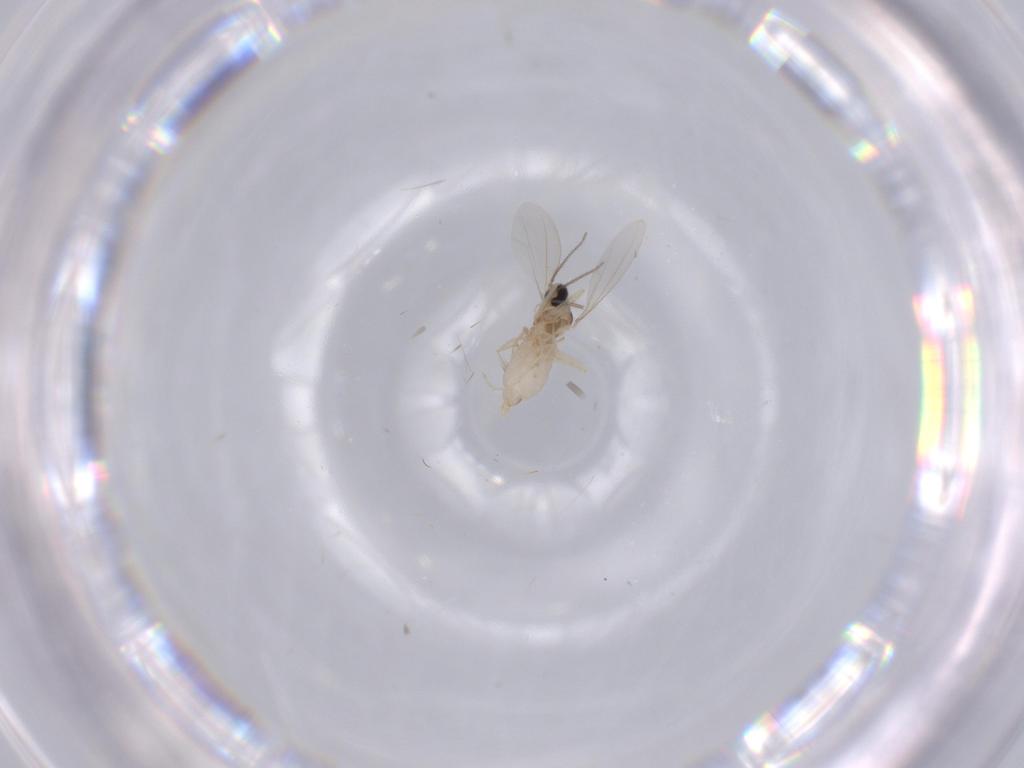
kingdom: Animalia
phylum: Arthropoda
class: Insecta
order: Diptera
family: Cecidomyiidae
